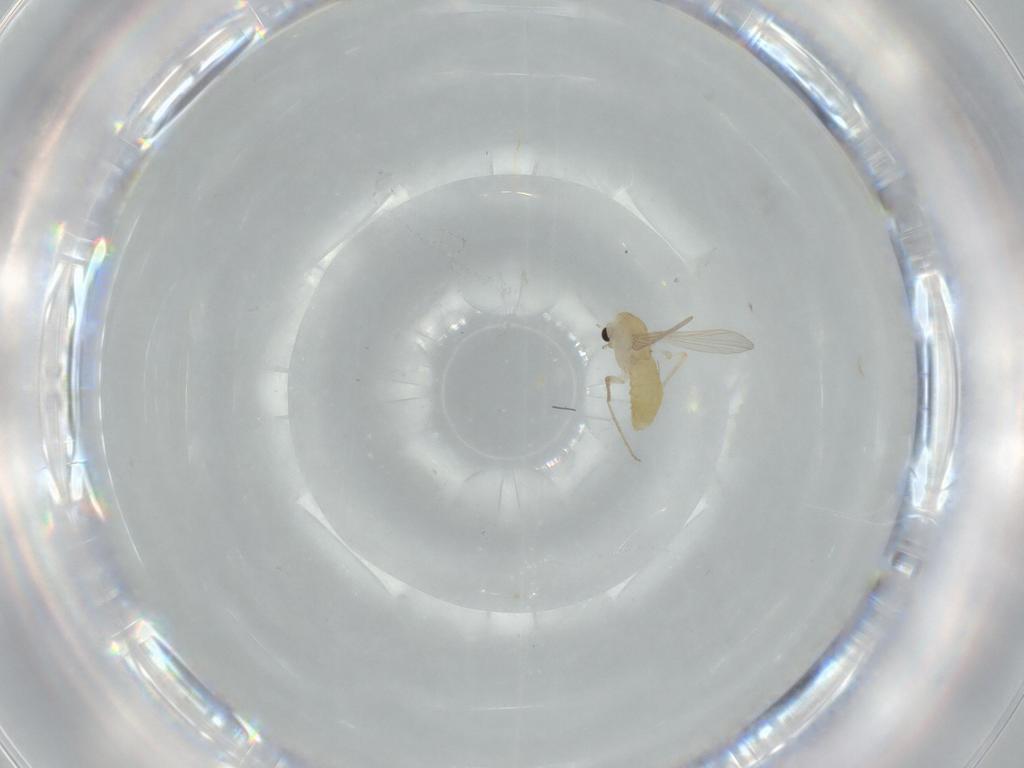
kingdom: Animalia
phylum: Arthropoda
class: Insecta
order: Diptera
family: Chironomidae
